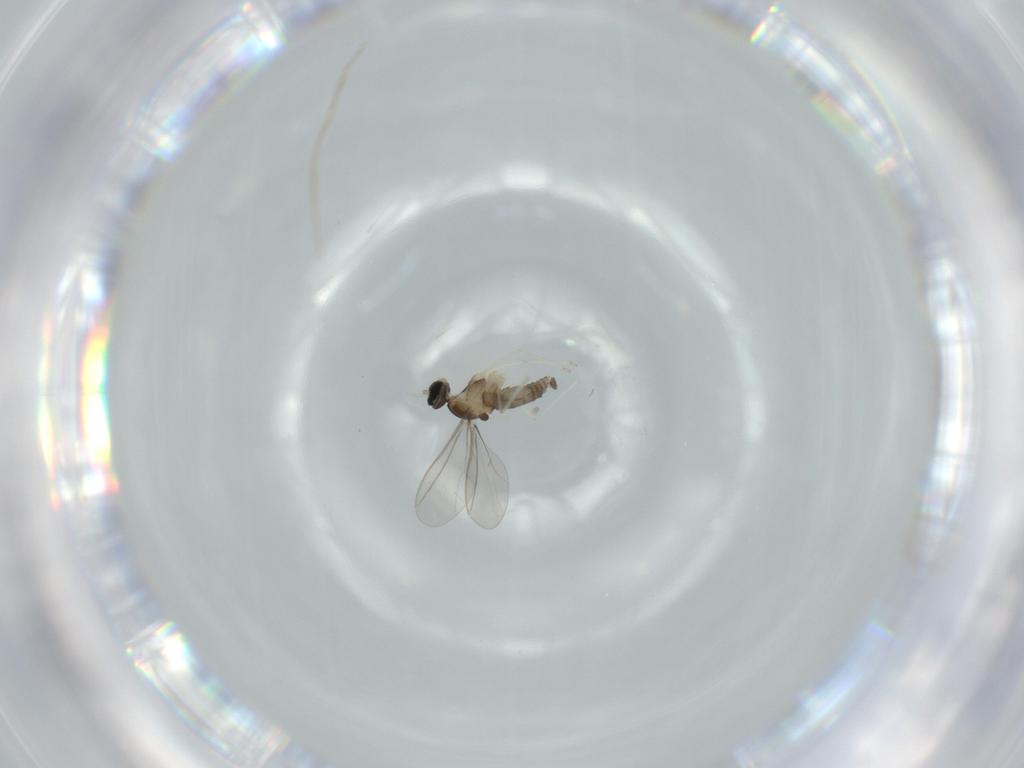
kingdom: Animalia
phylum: Arthropoda
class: Insecta
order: Diptera
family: Cecidomyiidae
